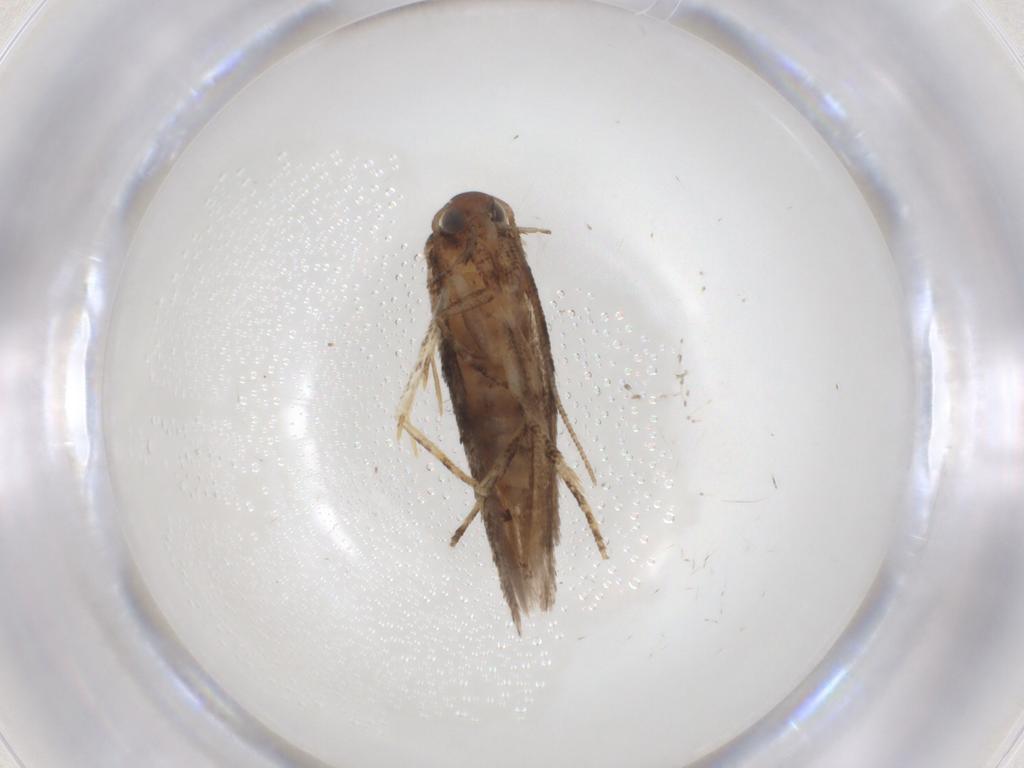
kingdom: Animalia
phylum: Arthropoda
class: Insecta
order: Lepidoptera
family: Gelechiidae
